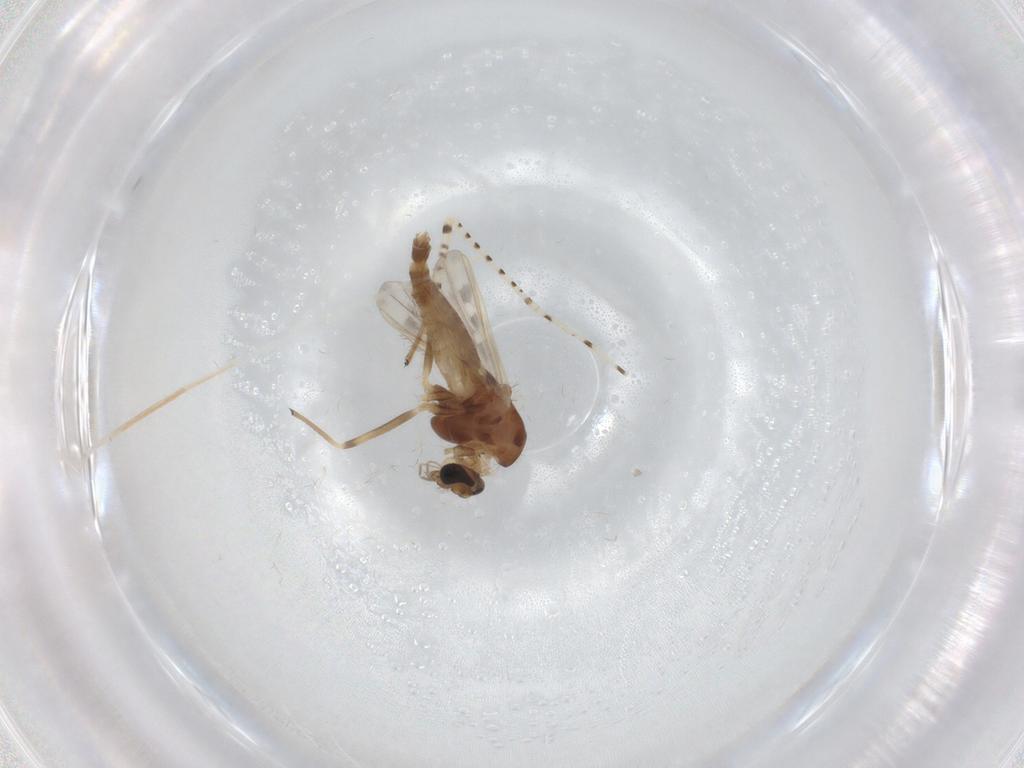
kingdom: Animalia
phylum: Arthropoda
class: Insecta
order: Diptera
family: Chironomidae
